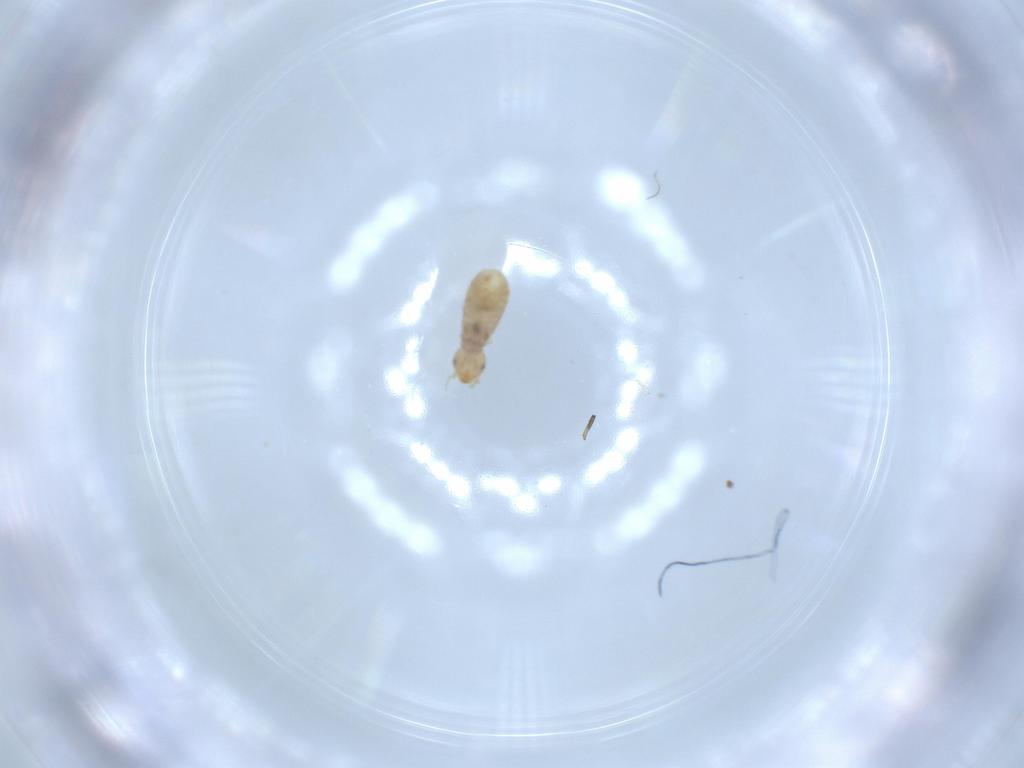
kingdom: Animalia
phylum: Arthropoda
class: Insecta
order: Psocodea
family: Liposcelididae
